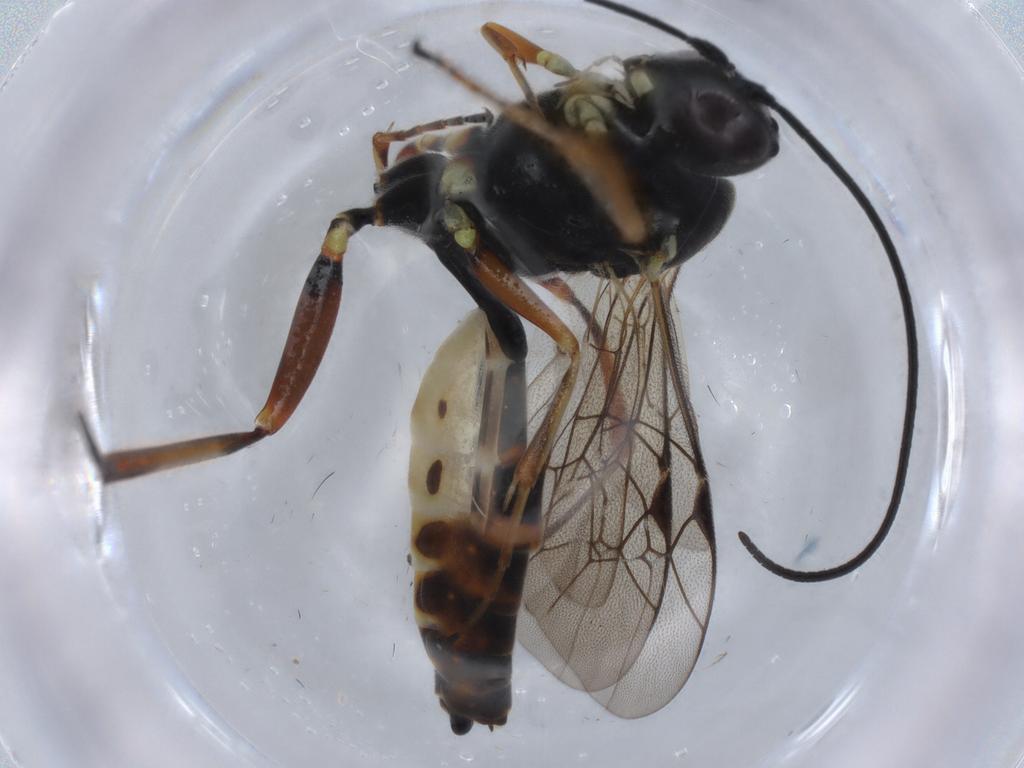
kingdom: Animalia
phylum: Arthropoda
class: Insecta
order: Hymenoptera
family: Ichneumonidae
